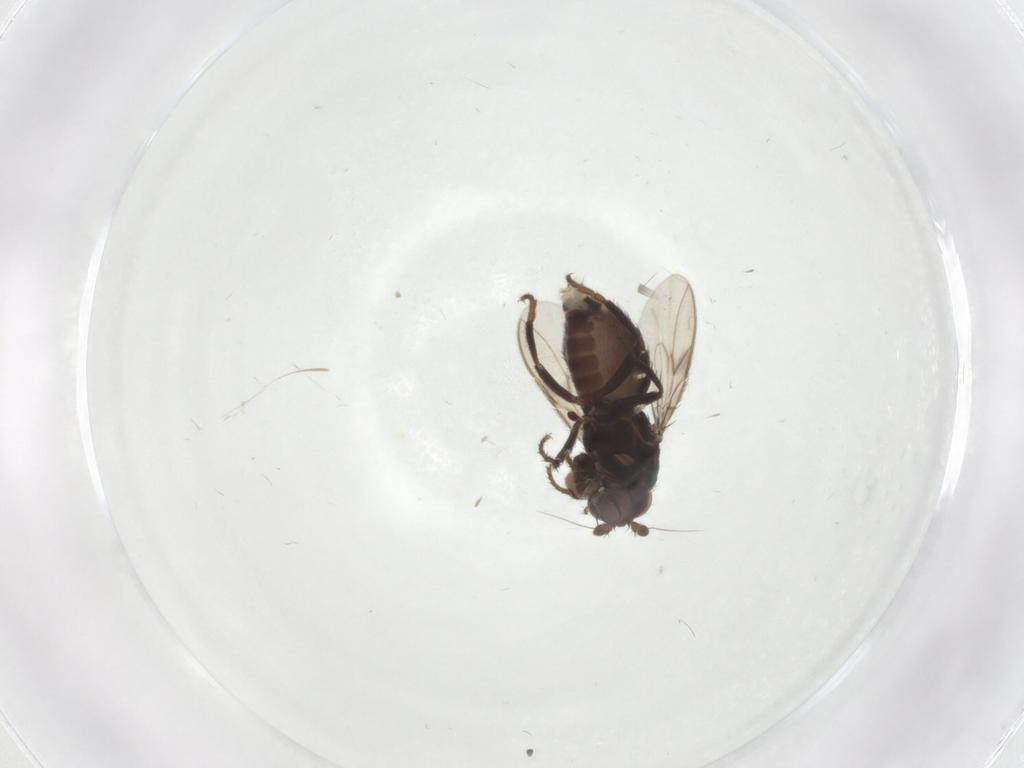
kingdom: Animalia
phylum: Arthropoda
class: Insecta
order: Diptera
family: Sphaeroceridae
